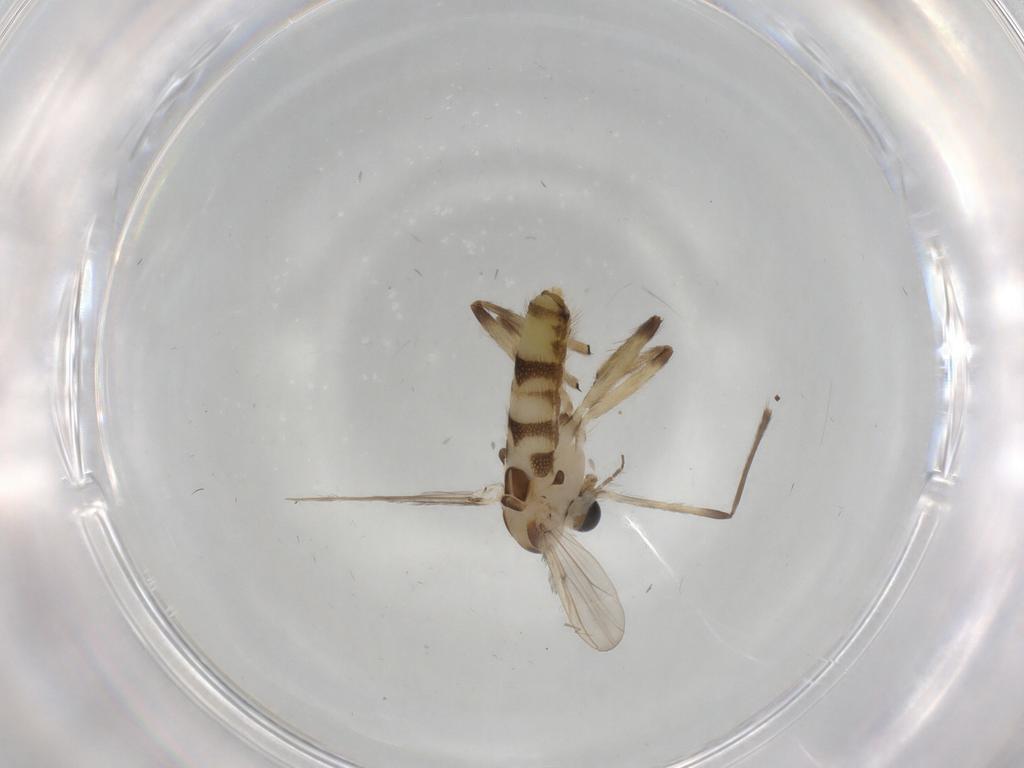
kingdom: Animalia
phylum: Arthropoda
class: Insecta
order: Diptera
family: Chironomidae
